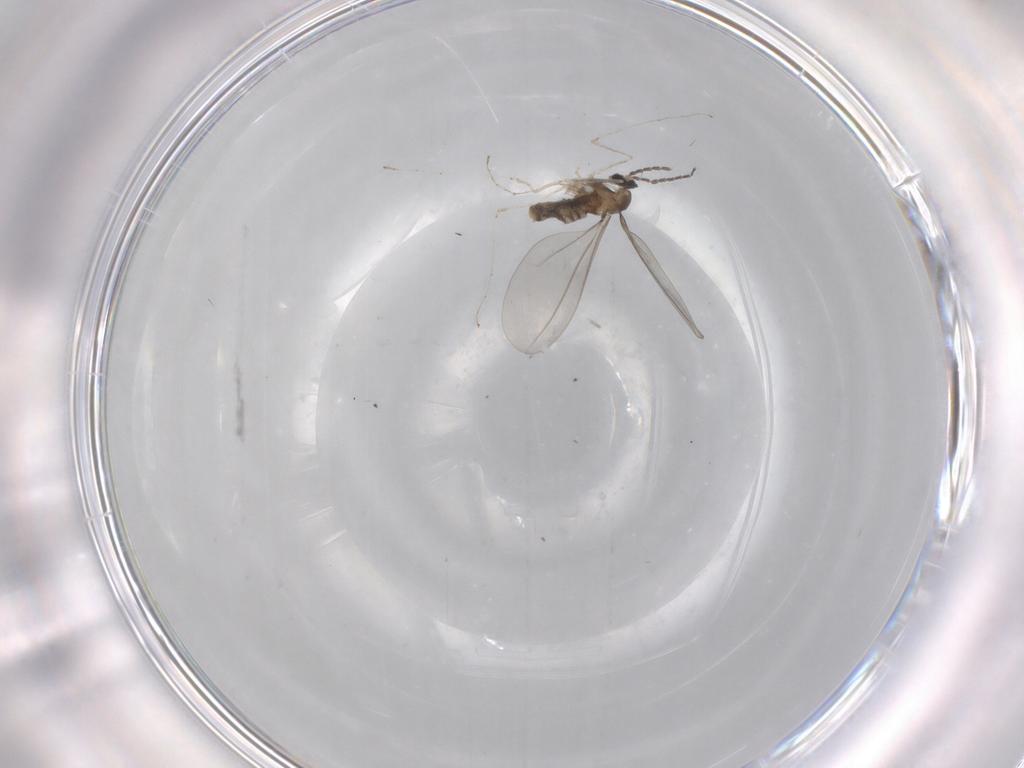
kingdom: Animalia
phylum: Arthropoda
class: Insecta
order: Diptera
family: Cecidomyiidae
